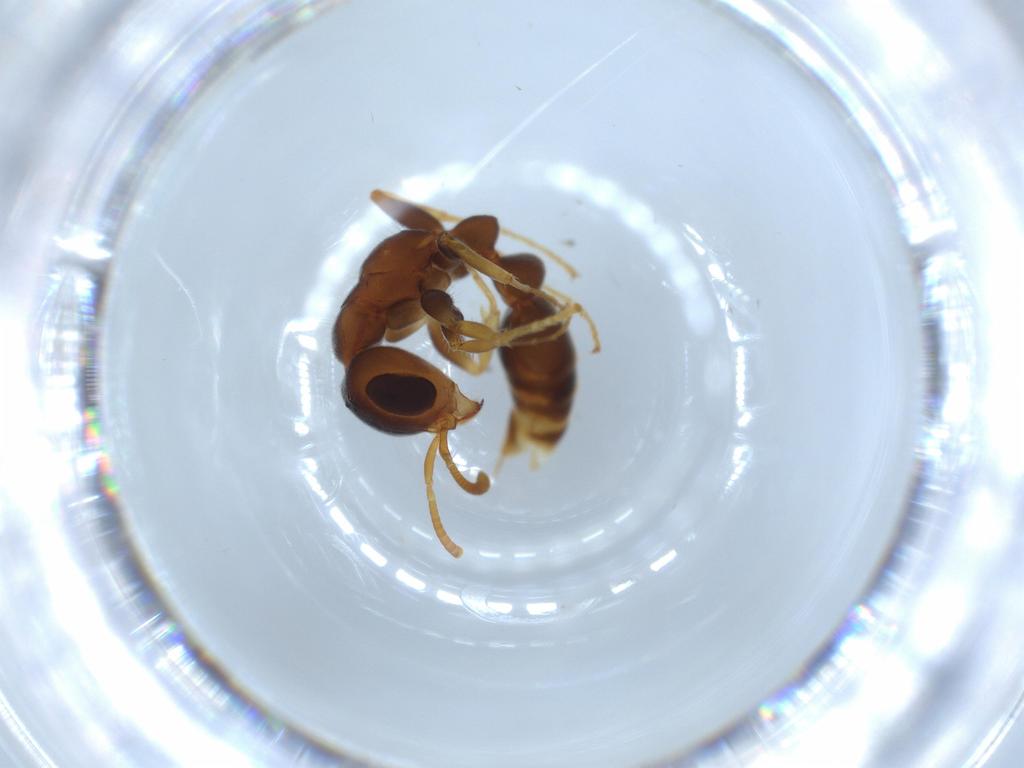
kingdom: Animalia
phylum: Arthropoda
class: Insecta
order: Hymenoptera
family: Formicidae
